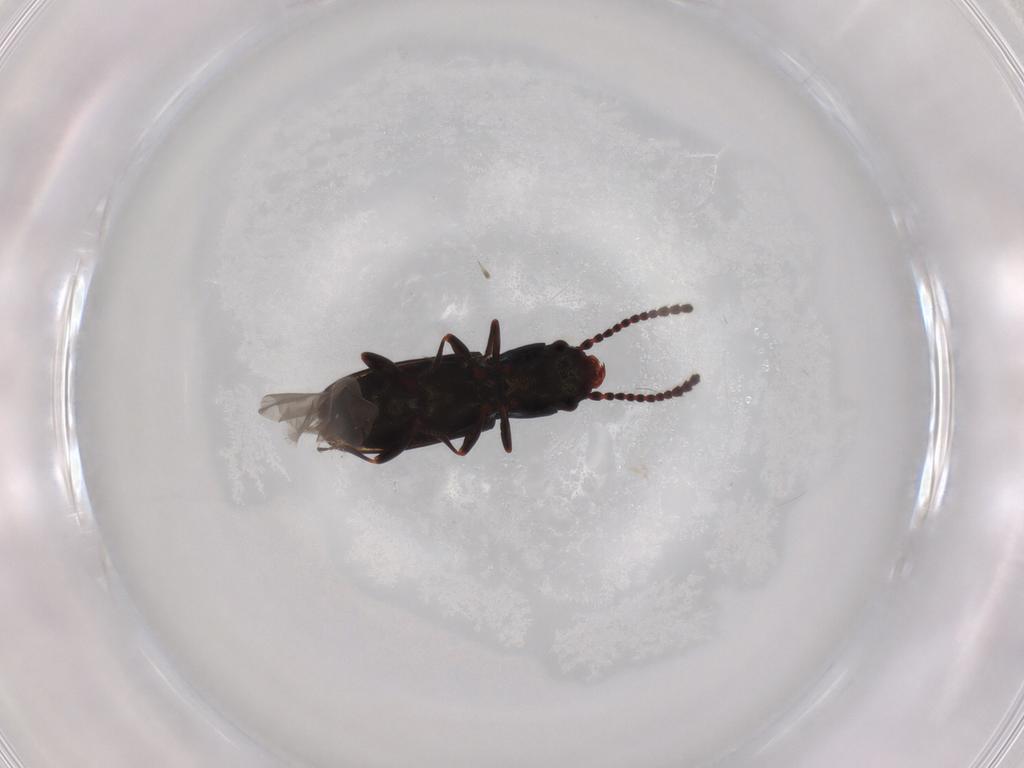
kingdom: Animalia
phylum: Arthropoda
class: Insecta
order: Coleoptera
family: Laemophloeidae
